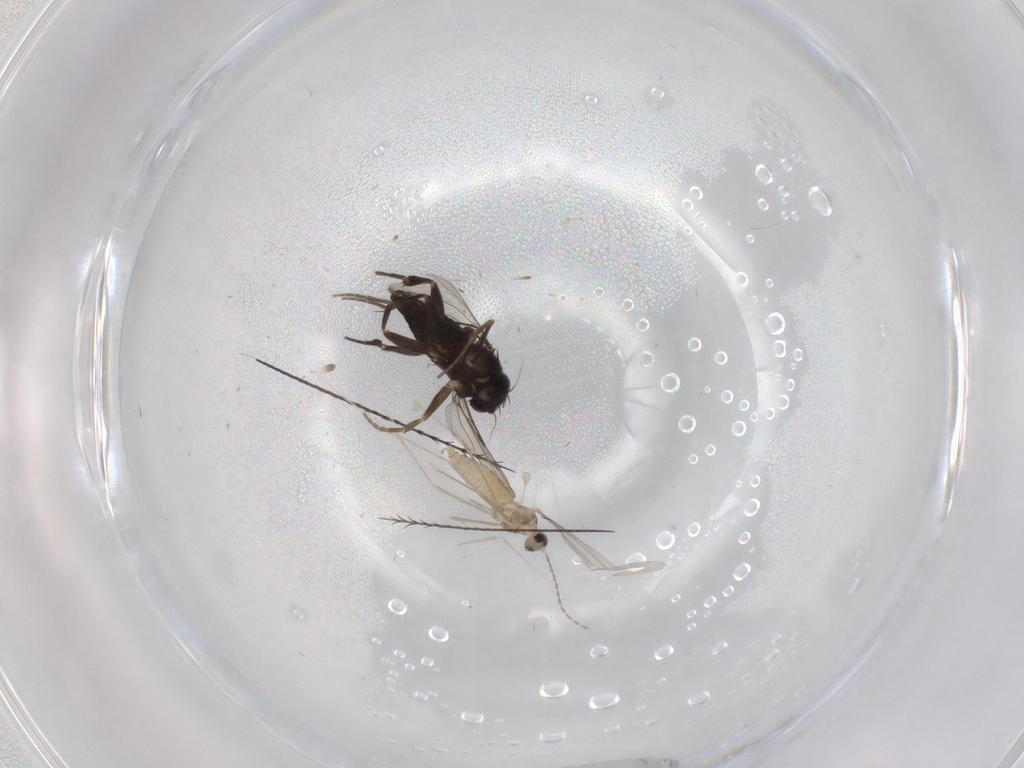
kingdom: Animalia
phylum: Arthropoda
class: Insecta
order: Diptera
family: Cecidomyiidae
